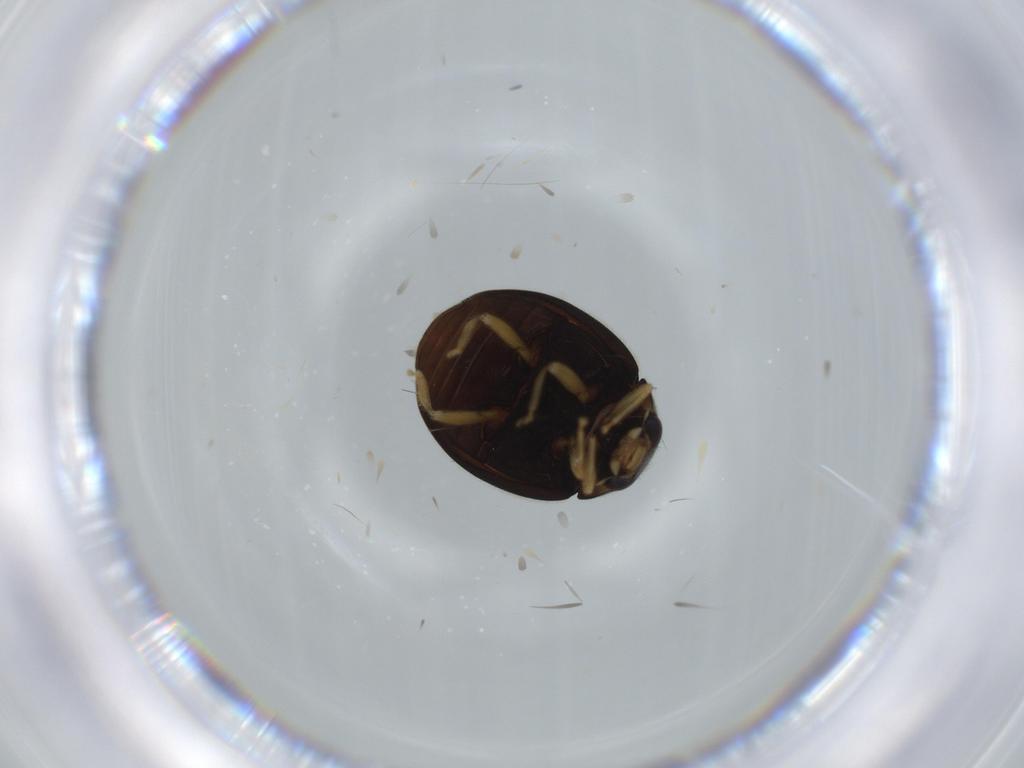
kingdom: Animalia
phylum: Arthropoda
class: Insecta
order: Coleoptera
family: Coccinellidae
